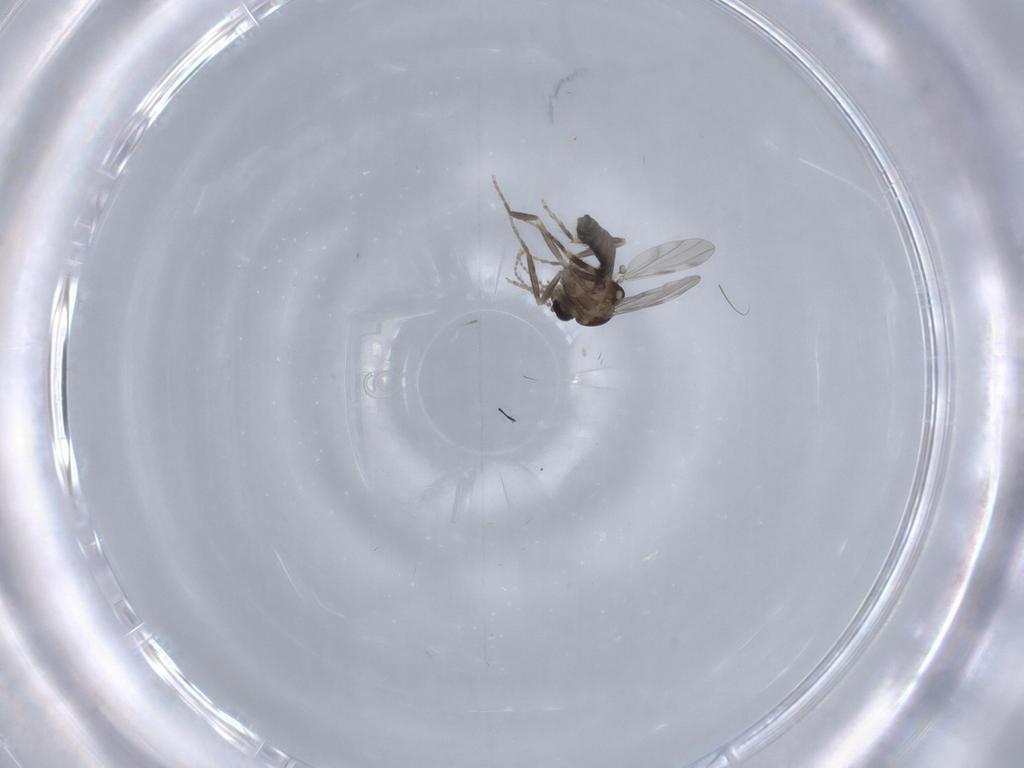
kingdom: Animalia
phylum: Arthropoda
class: Insecta
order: Diptera
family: Ceratopogonidae
